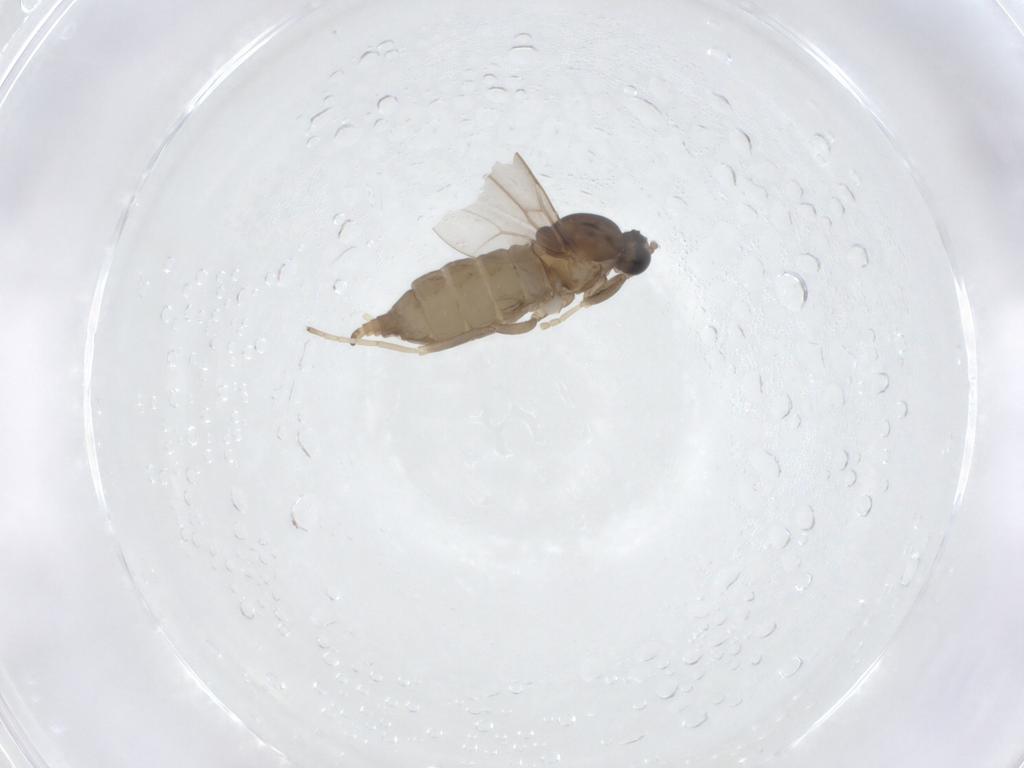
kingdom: Animalia
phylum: Arthropoda
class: Insecta
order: Diptera
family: Cecidomyiidae
